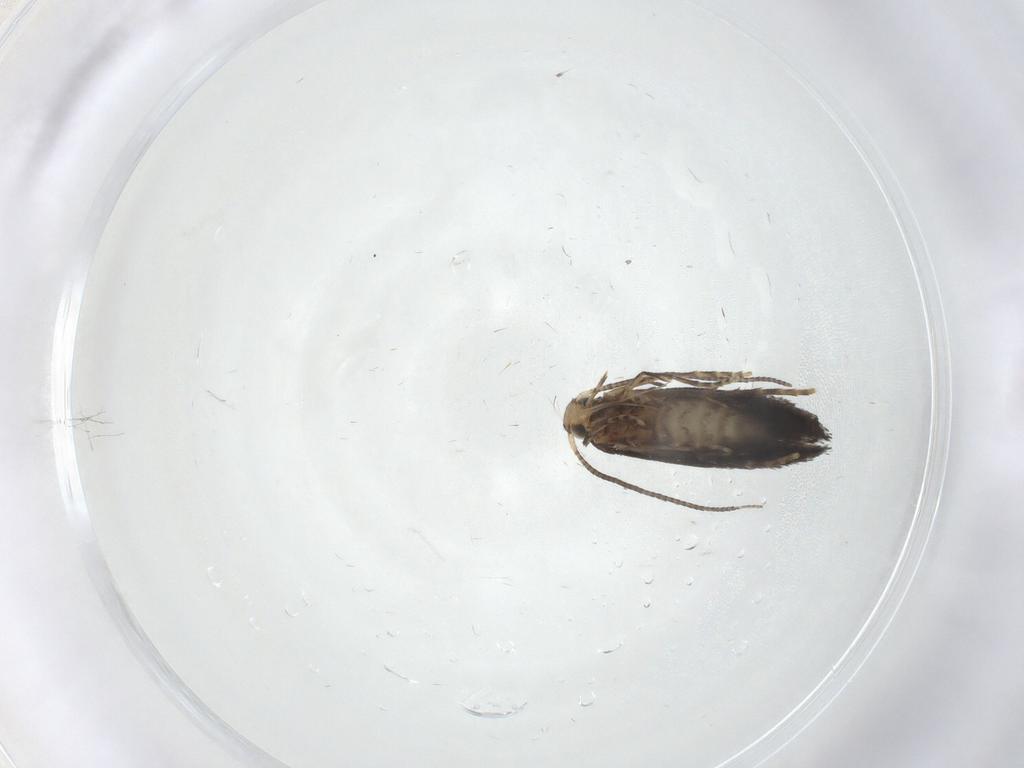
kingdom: Animalia
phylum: Arthropoda
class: Insecta
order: Lepidoptera
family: Gracillariidae
